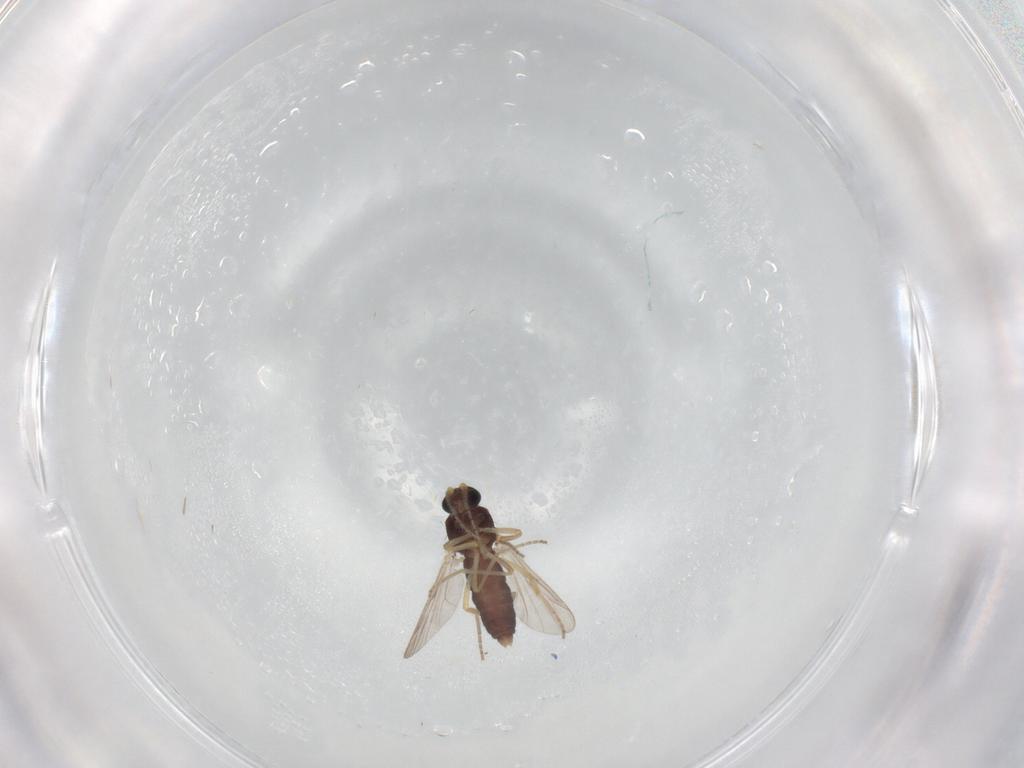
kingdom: Animalia
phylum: Arthropoda
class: Insecta
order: Diptera
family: Ceratopogonidae
